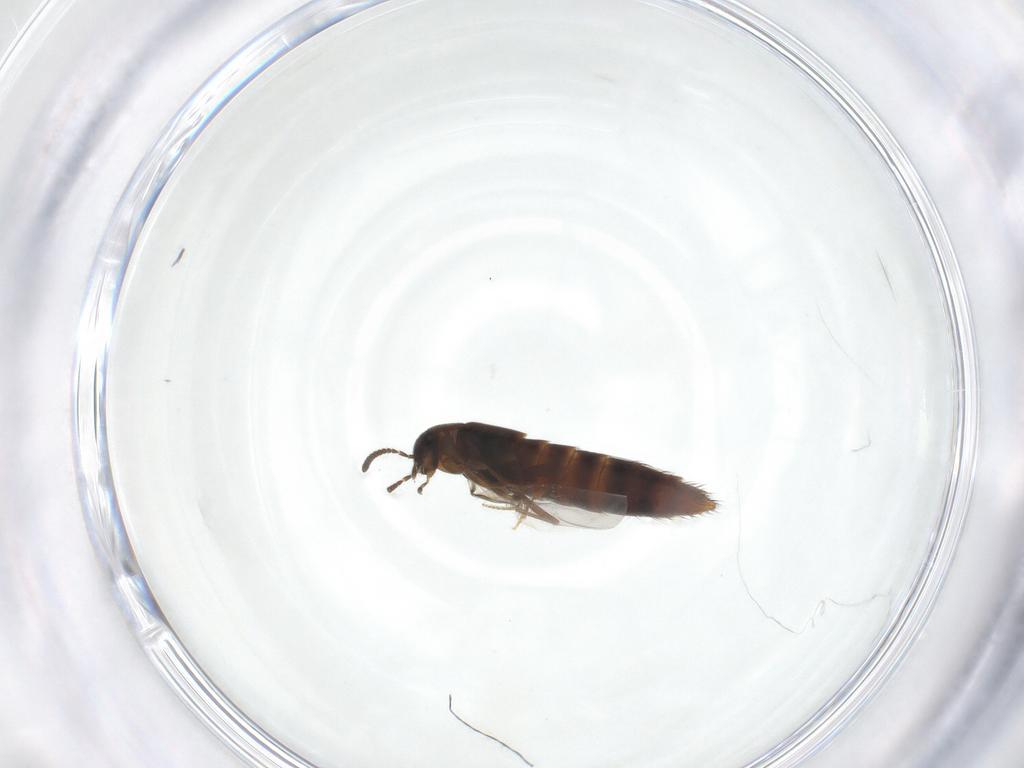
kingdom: Animalia
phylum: Arthropoda
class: Insecta
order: Coleoptera
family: Staphylinidae
